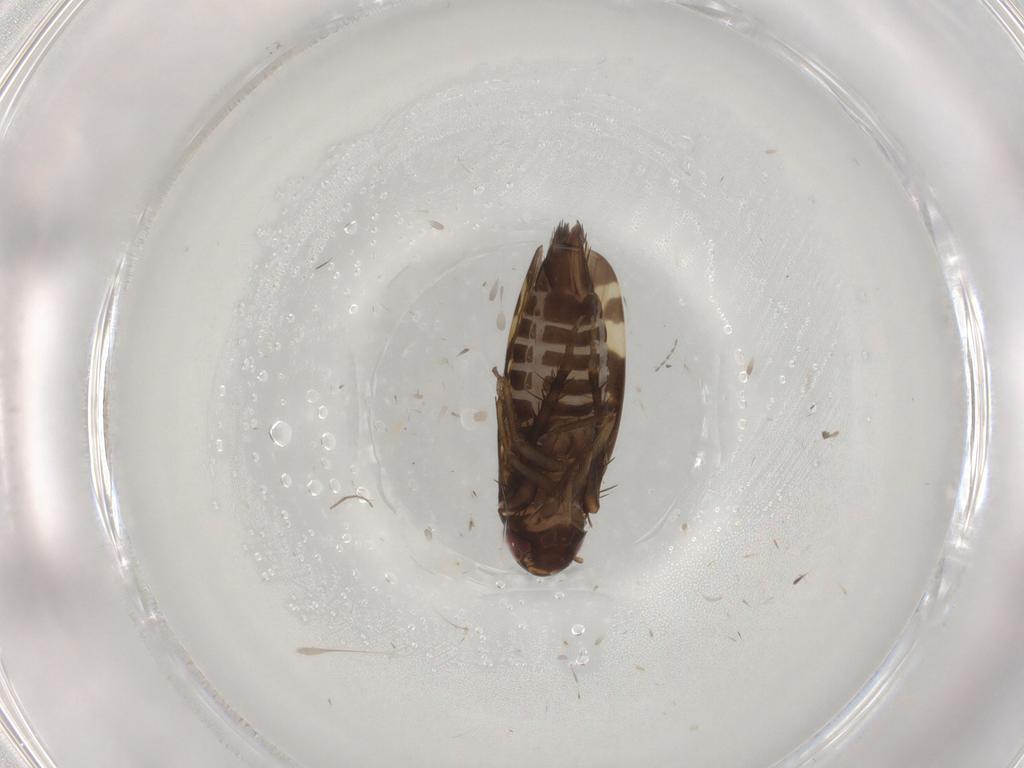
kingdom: Animalia
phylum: Arthropoda
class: Insecta
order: Hemiptera
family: Cicadellidae
